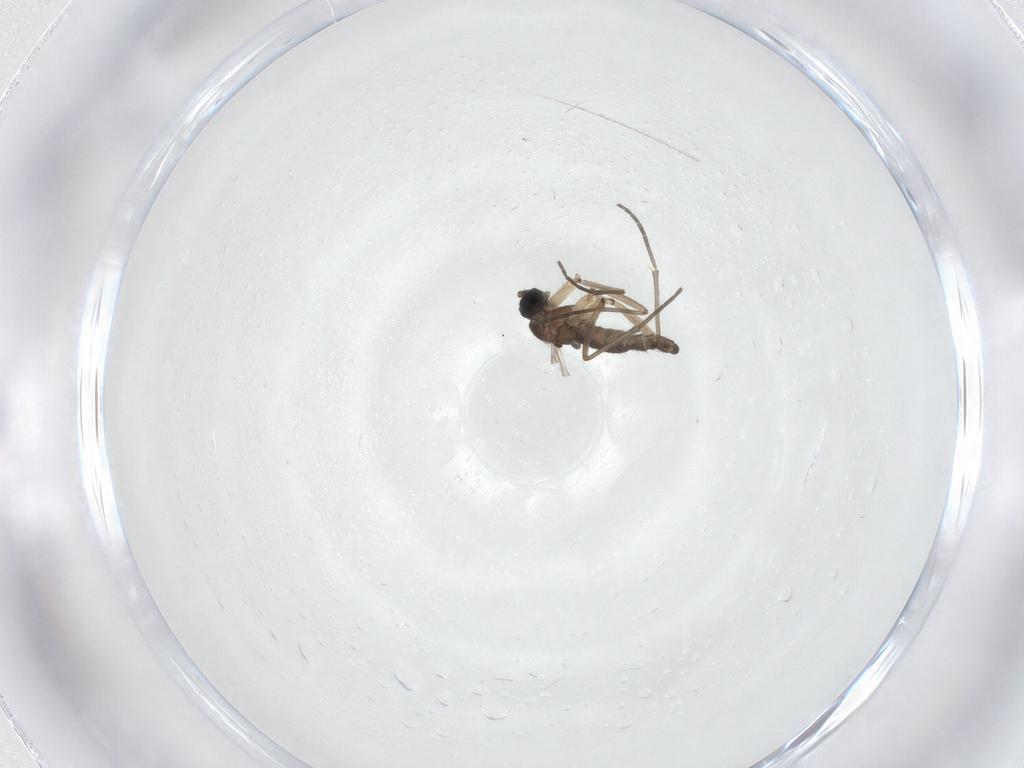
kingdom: Animalia
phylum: Arthropoda
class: Insecta
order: Diptera
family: Sciaridae
